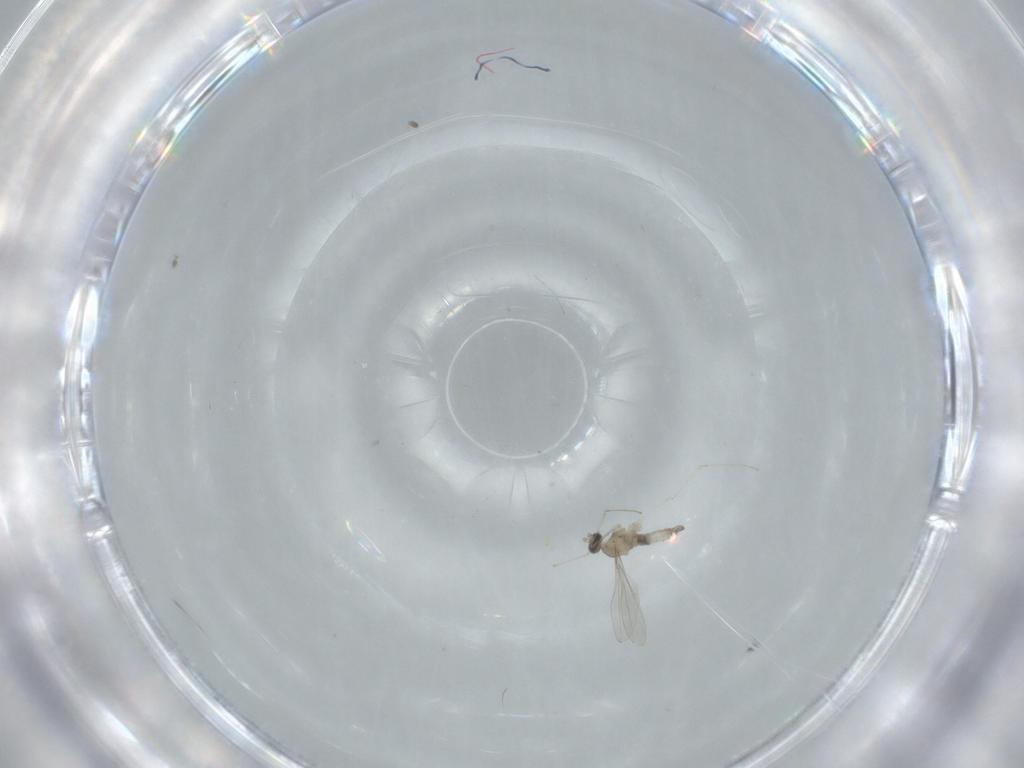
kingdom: Animalia
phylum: Arthropoda
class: Insecta
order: Diptera
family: Cecidomyiidae
